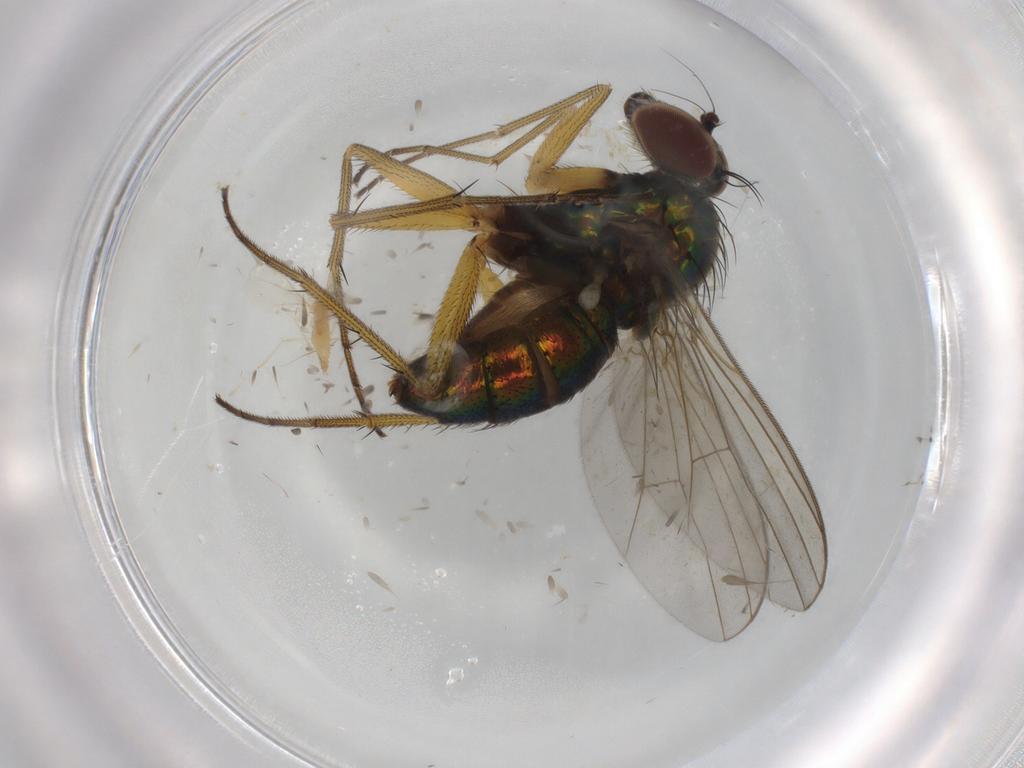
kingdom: Animalia
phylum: Arthropoda
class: Insecta
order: Diptera
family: Dolichopodidae
